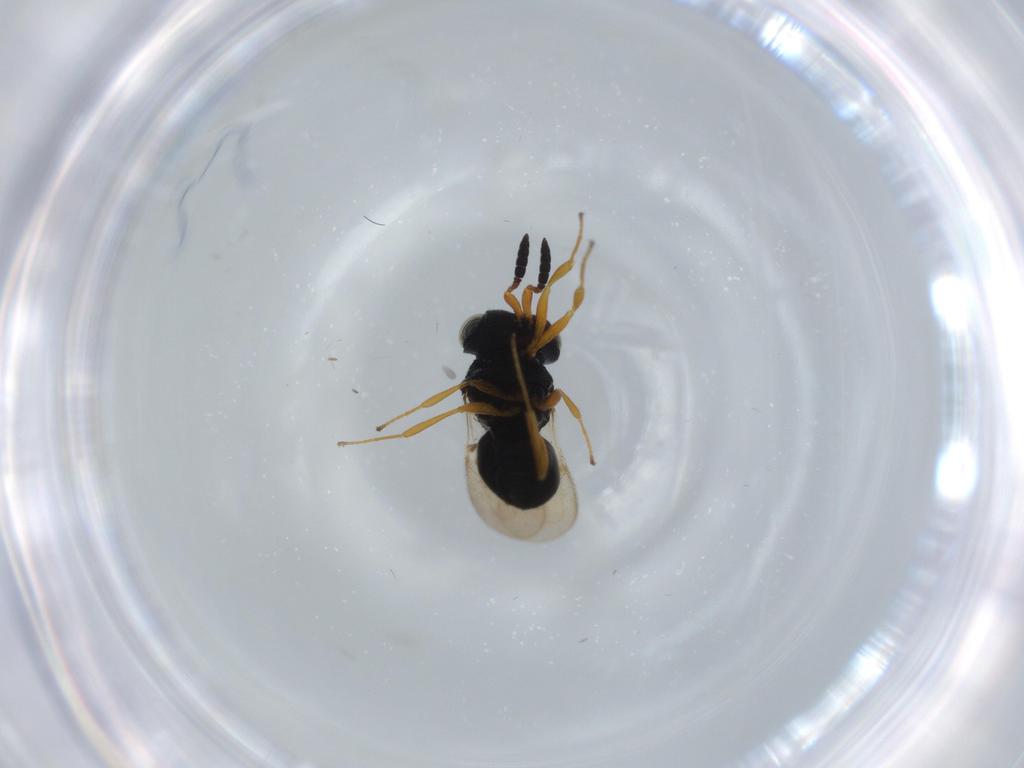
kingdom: Animalia
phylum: Arthropoda
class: Insecta
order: Hymenoptera
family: Scelionidae
